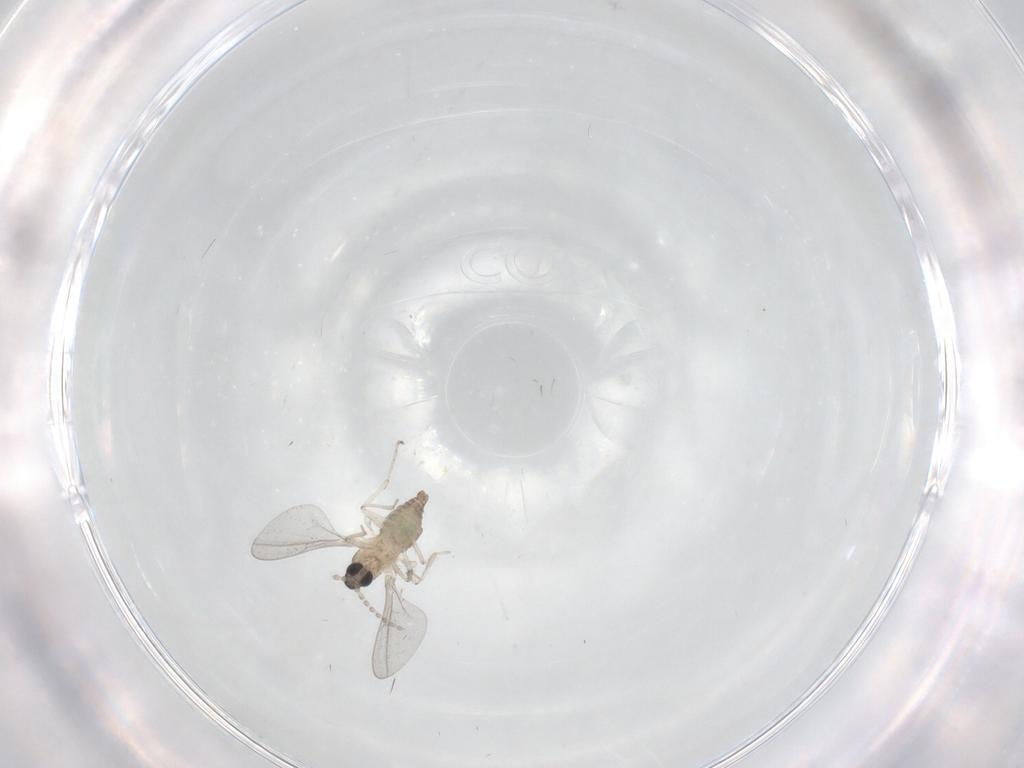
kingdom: Animalia
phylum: Arthropoda
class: Insecta
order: Diptera
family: Cecidomyiidae
